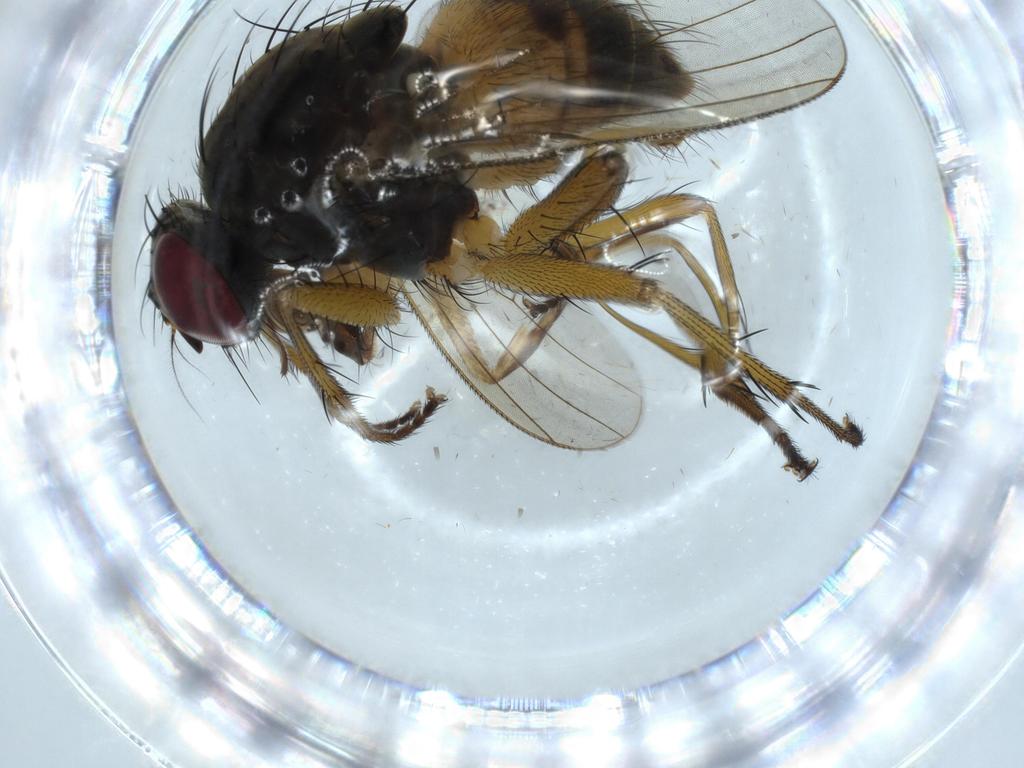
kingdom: Animalia
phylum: Arthropoda
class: Insecta
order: Diptera
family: Muscidae
